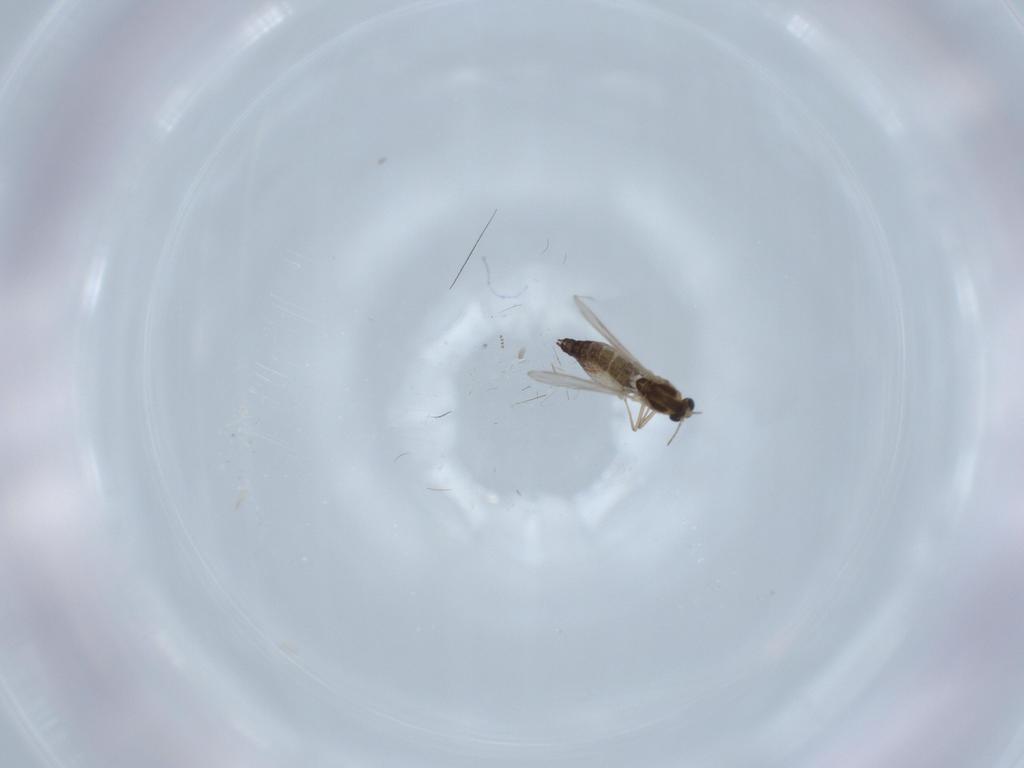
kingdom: Animalia
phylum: Arthropoda
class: Insecta
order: Diptera
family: Chironomidae
